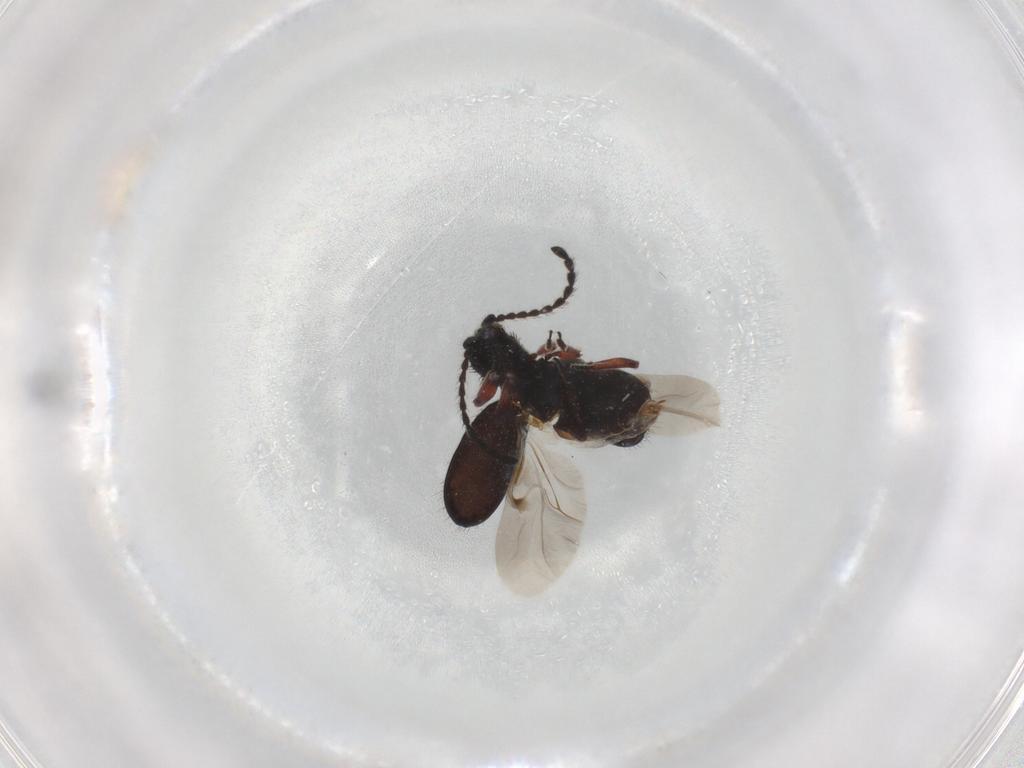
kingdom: Animalia
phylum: Arthropoda
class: Insecta
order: Coleoptera
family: Ptinidae
